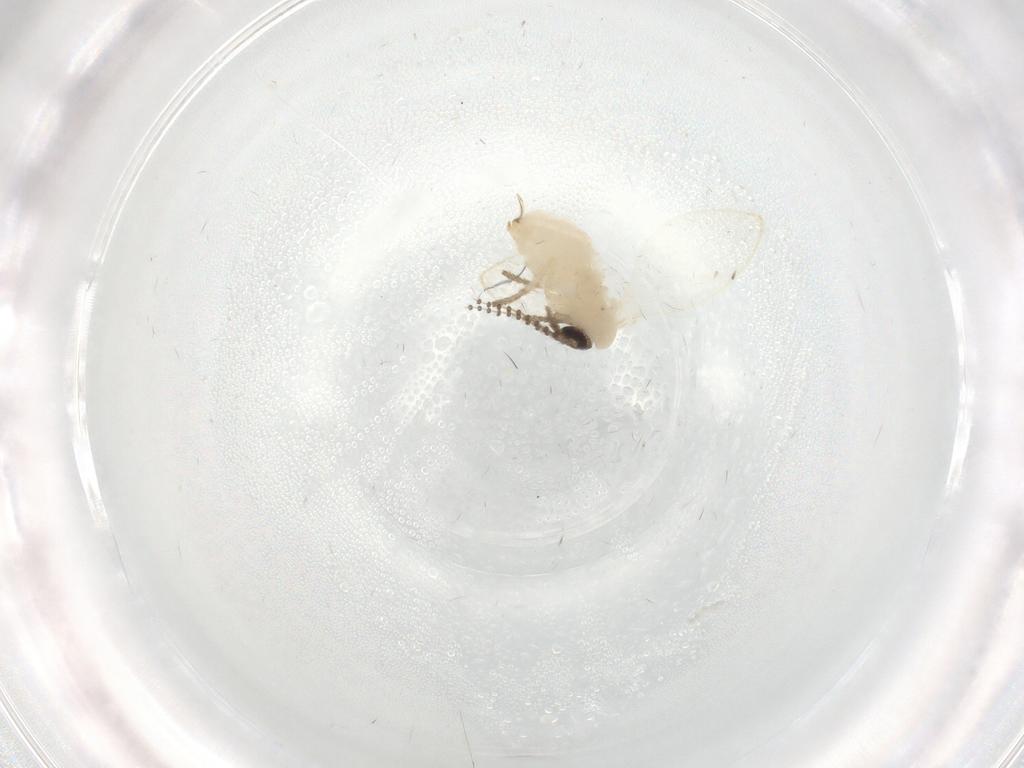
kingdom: Animalia
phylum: Arthropoda
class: Insecta
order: Diptera
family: Psychodidae
